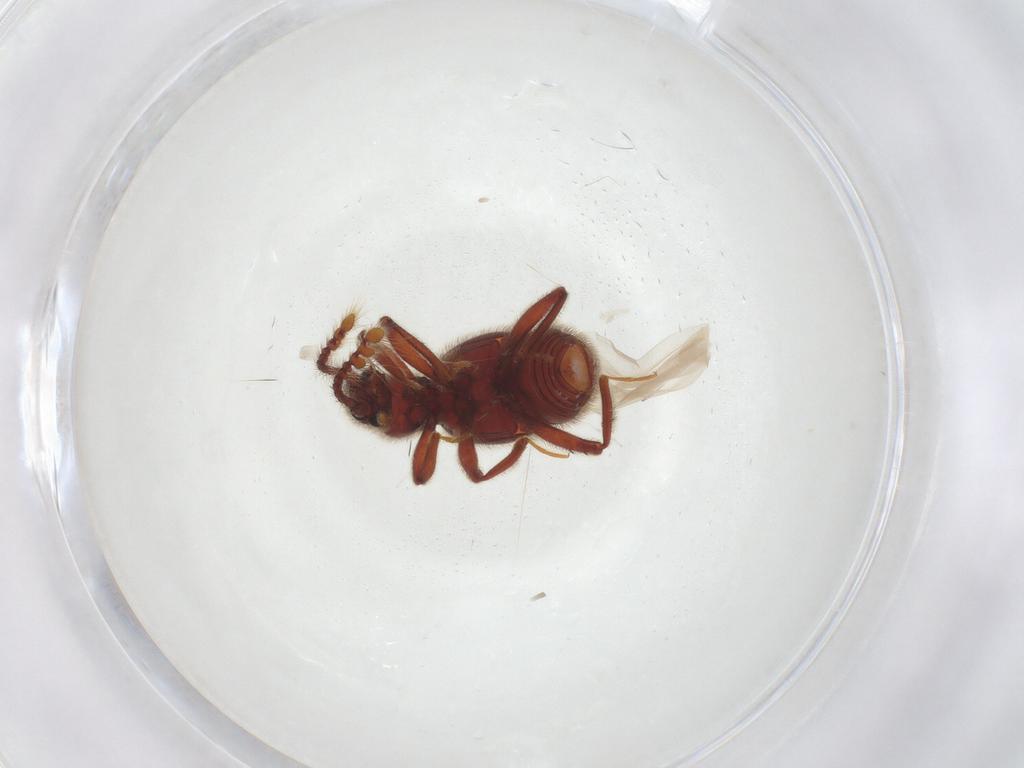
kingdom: Animalia
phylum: Arthropoda
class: Insecta
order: Coleoptera
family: Staphylinidae
